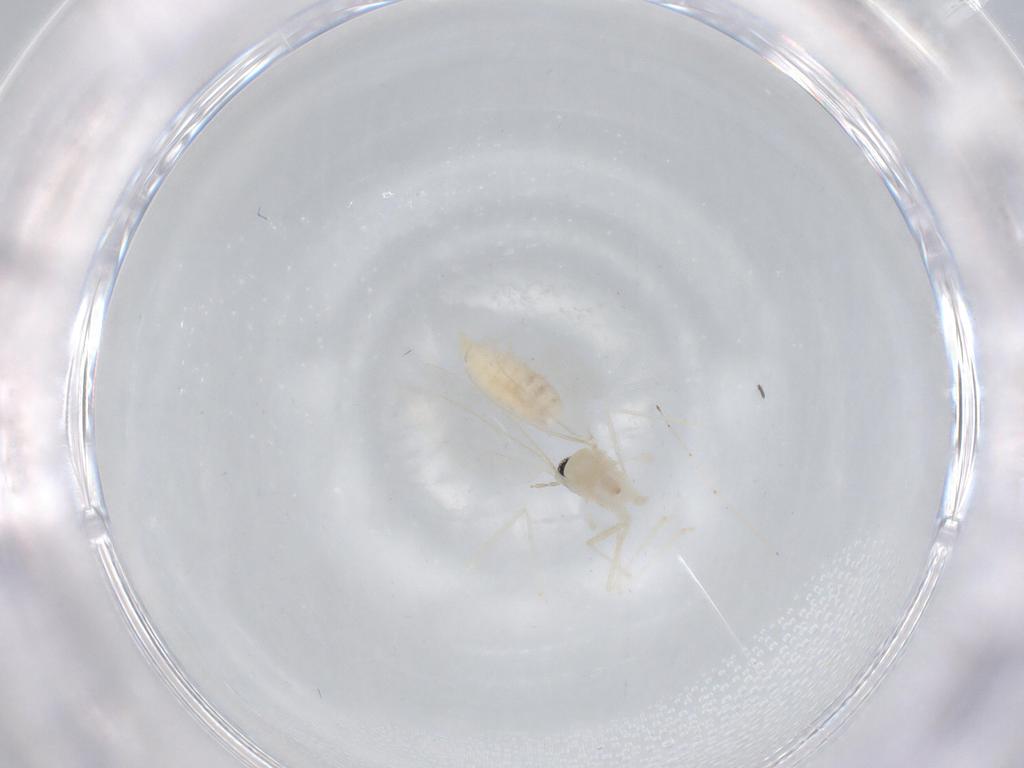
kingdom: Animalia
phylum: Arthropoda
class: Insecta
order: Diptera
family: Cecidomyiidae
